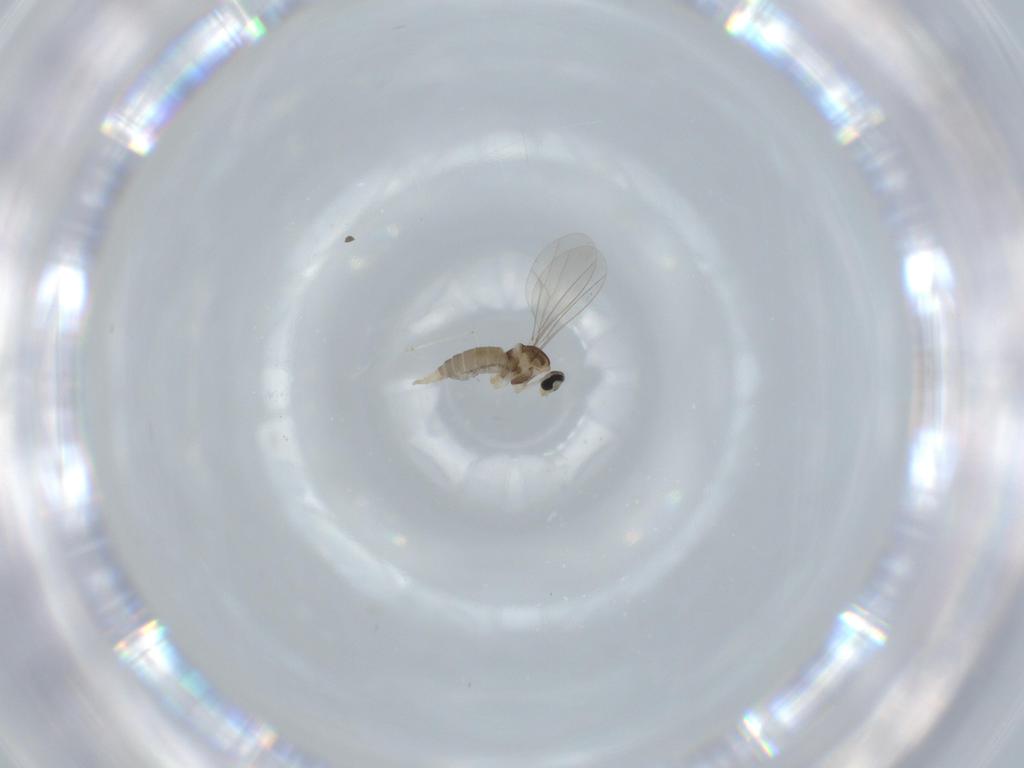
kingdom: Animalia
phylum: Arthropoda
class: Insecta
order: Diptera
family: Cecidomyiidae
